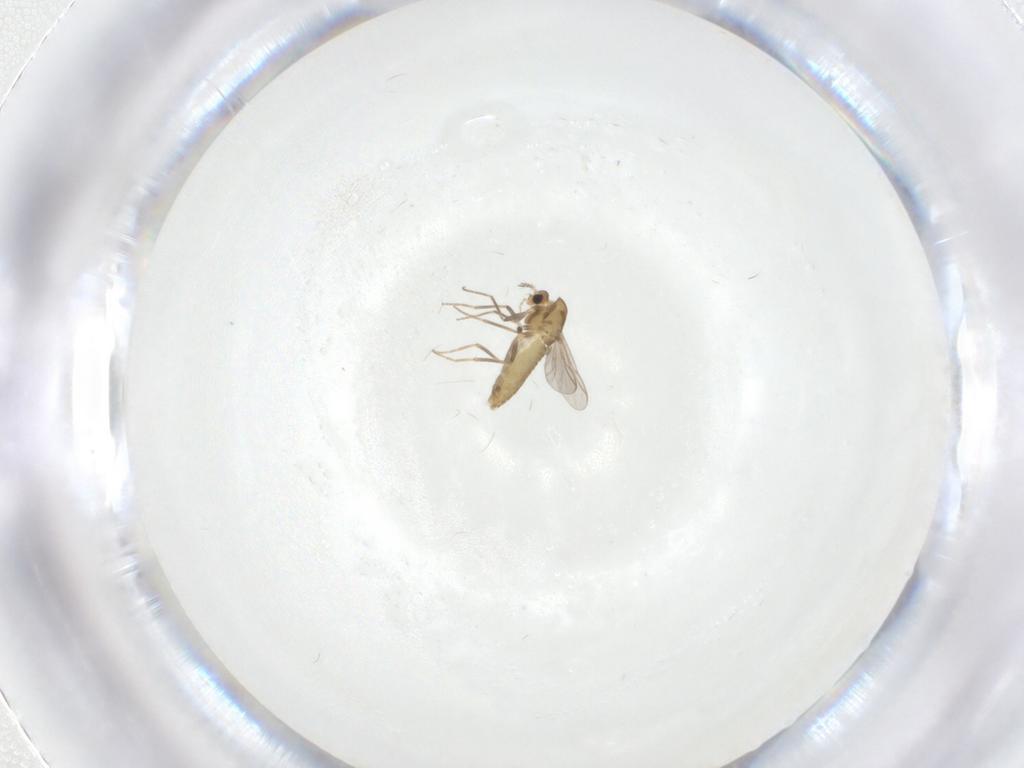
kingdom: Animalia
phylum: Arthropoda
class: Insecta
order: Diptera
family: Chironomidae
